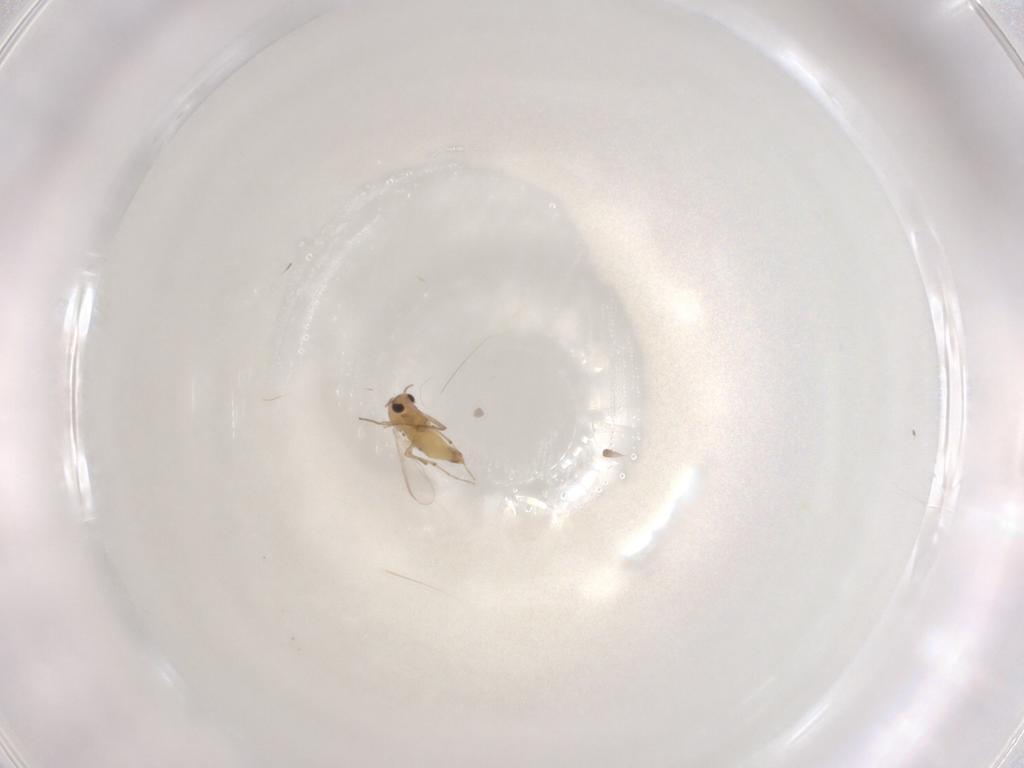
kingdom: Animalia
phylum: Arthropoda
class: Insecta
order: Diptera
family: Chironomidae
